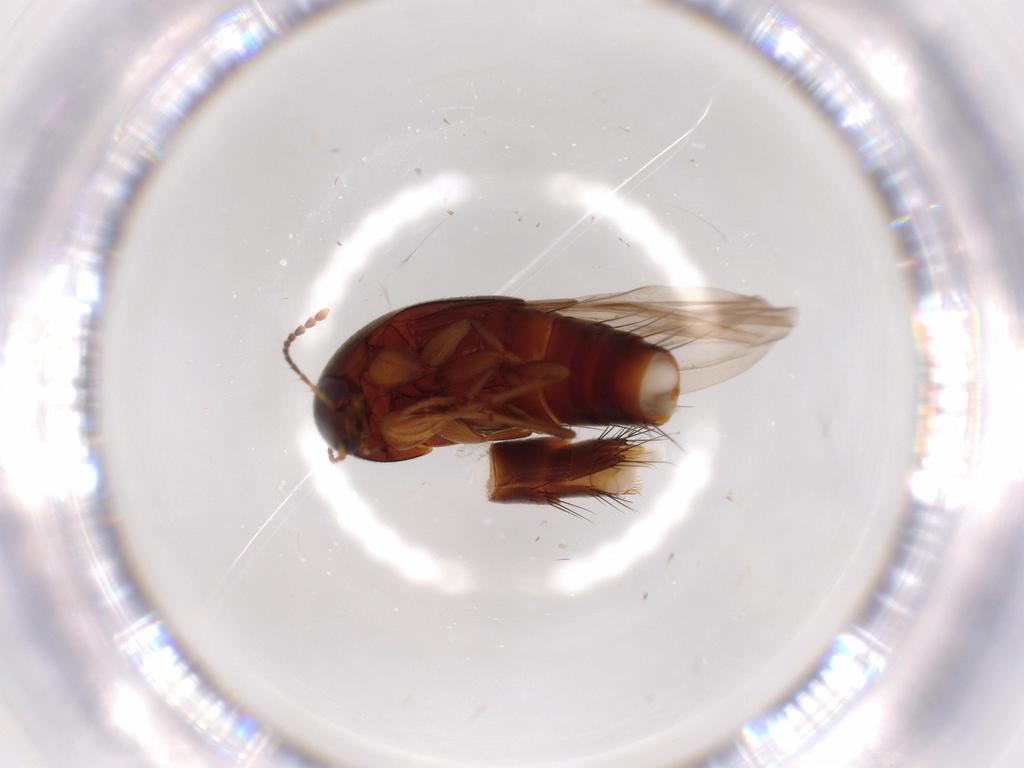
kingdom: Animalia
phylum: Arthropoda
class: Insecta
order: Coleoptera
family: Staphylinidae
